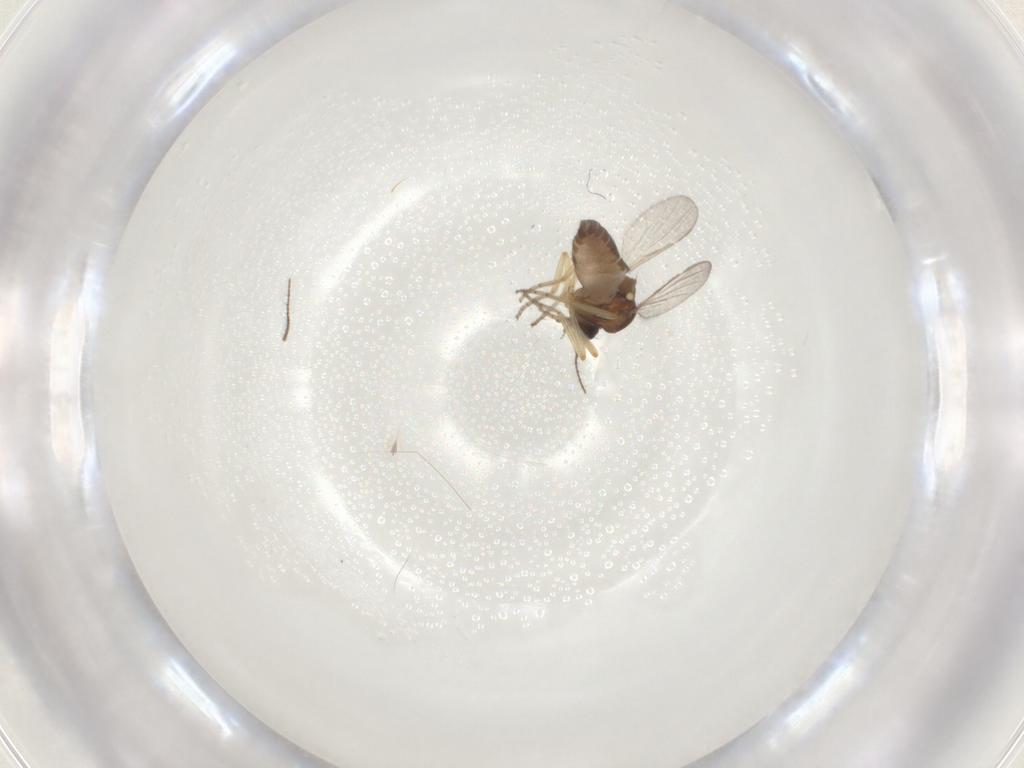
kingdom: Animalia
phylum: Arthropoda
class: Insecta
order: Diptera
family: Ceratopogonidae
